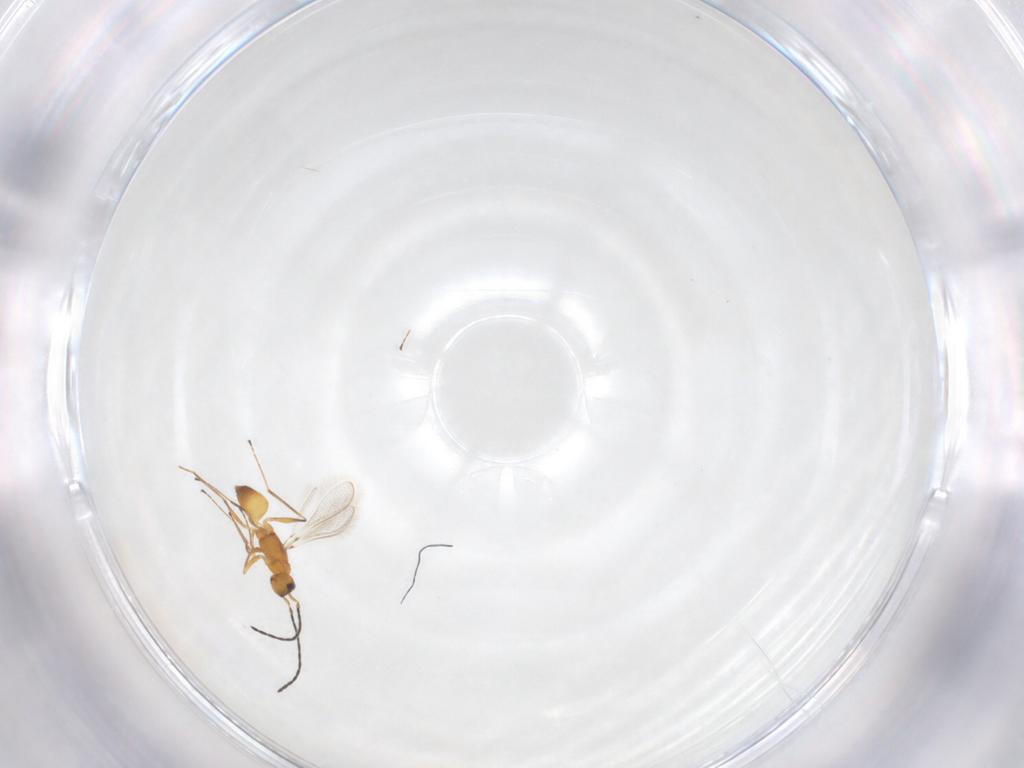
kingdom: Animalia
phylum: Arthropoda
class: Insecta
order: Hymenoptera
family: Mymaridae
